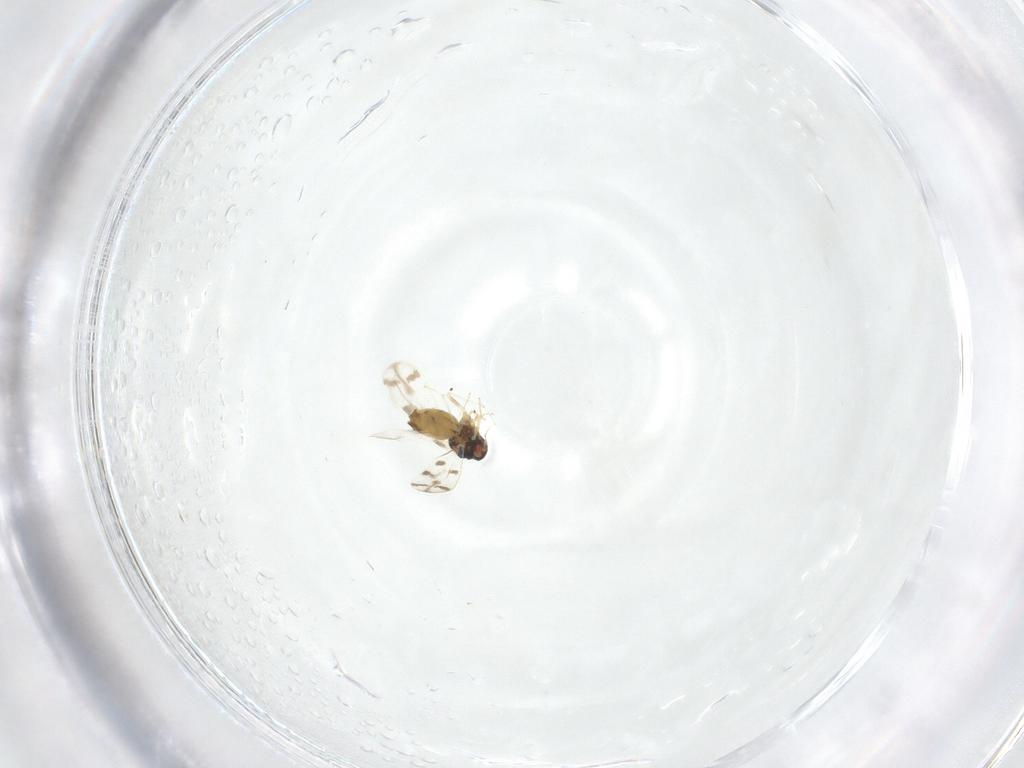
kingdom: Animalia
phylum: Arthropoda
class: Insecta
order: Hemiptera
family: Aleyrodidae
